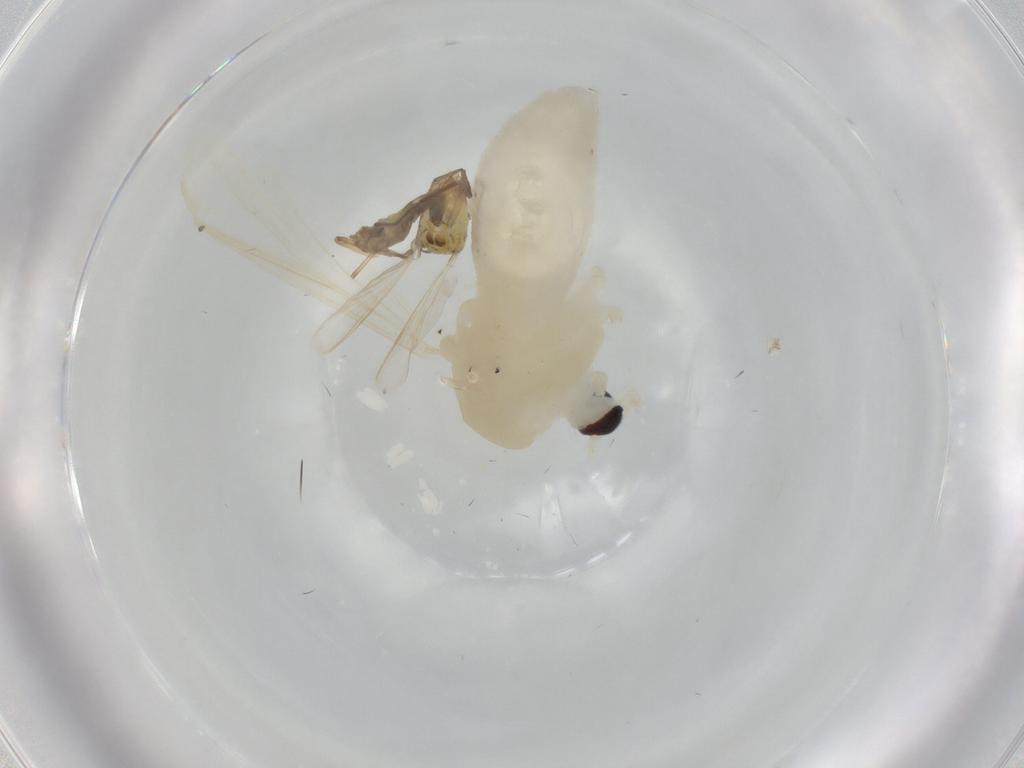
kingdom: Animalia
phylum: Arthropoda
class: Insecta
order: Diptera
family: Chironomidae
